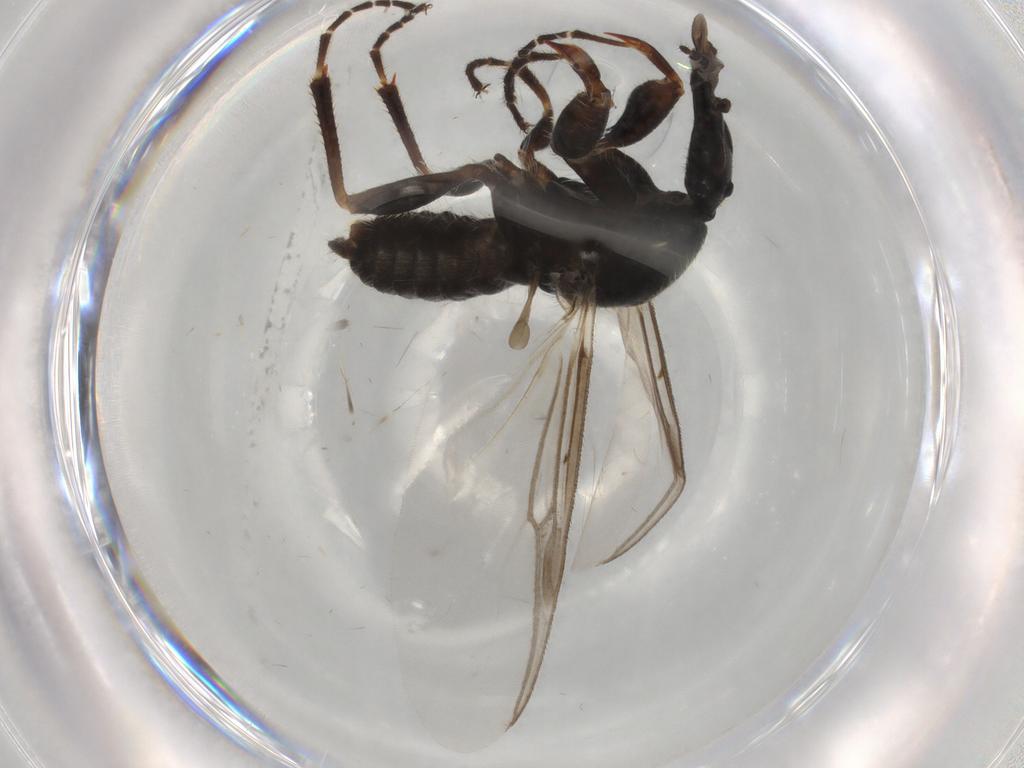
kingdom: Animalia
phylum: Arthropoda
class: Insecta
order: Diptera
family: Bibionidae
